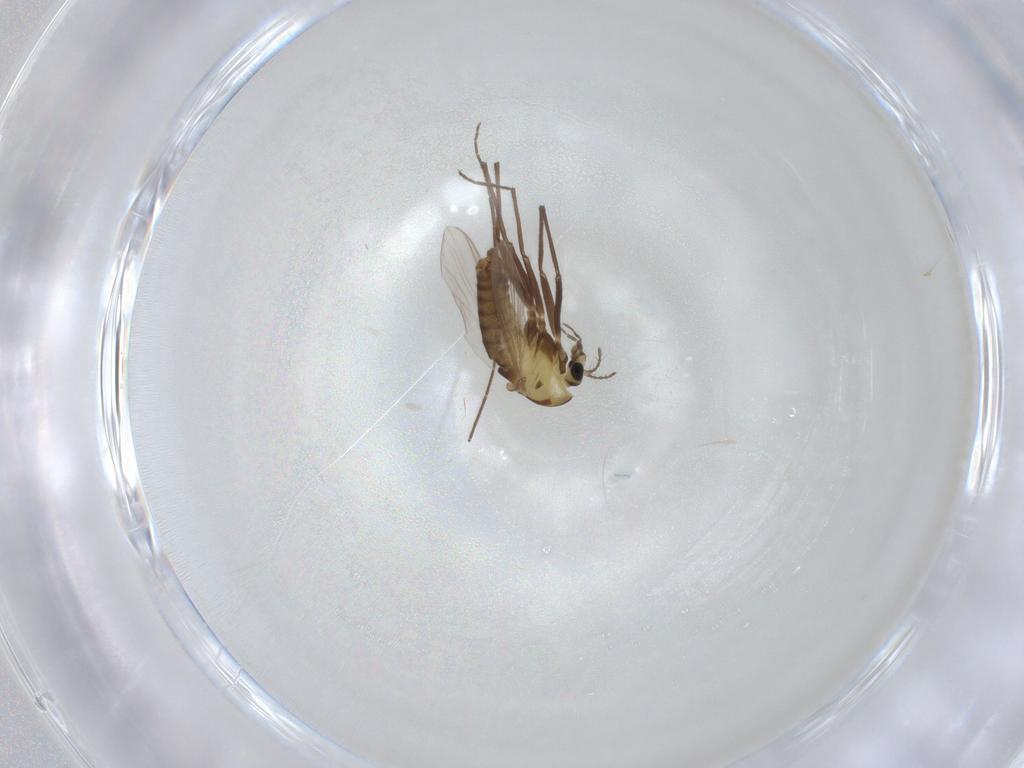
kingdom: Animalia
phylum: Arthropoda
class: Insecta
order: Diptera
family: Chironomidae
